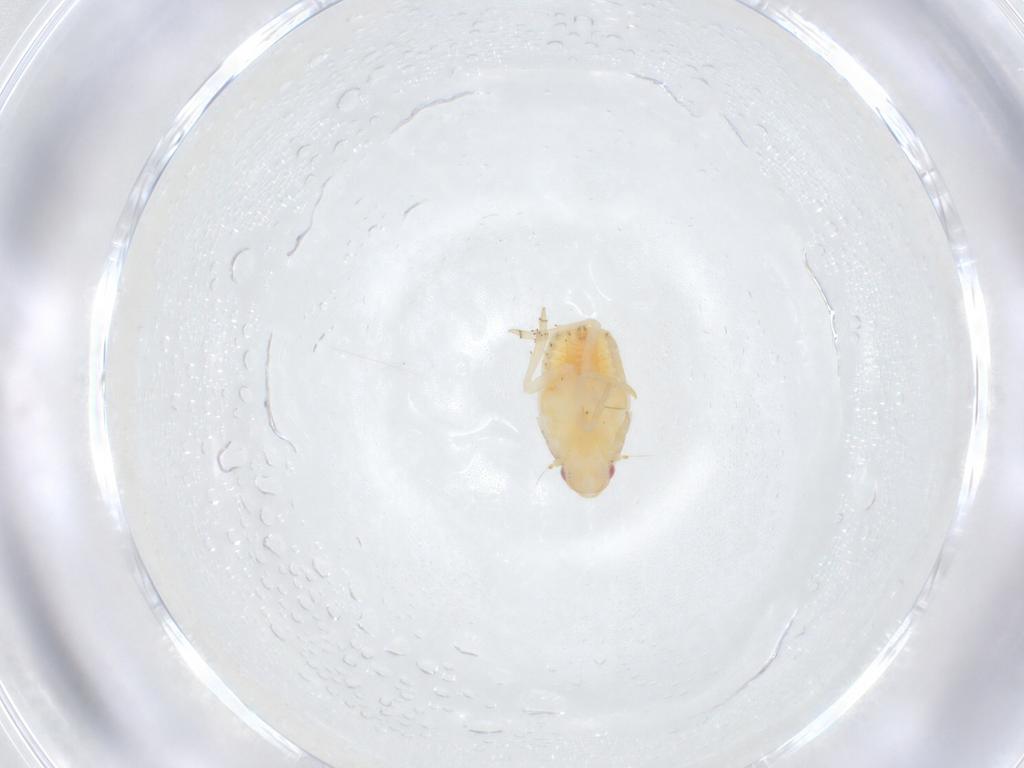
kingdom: Animalia
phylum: Arthropoda
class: Insecta
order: Hemiptera
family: Flatidae
